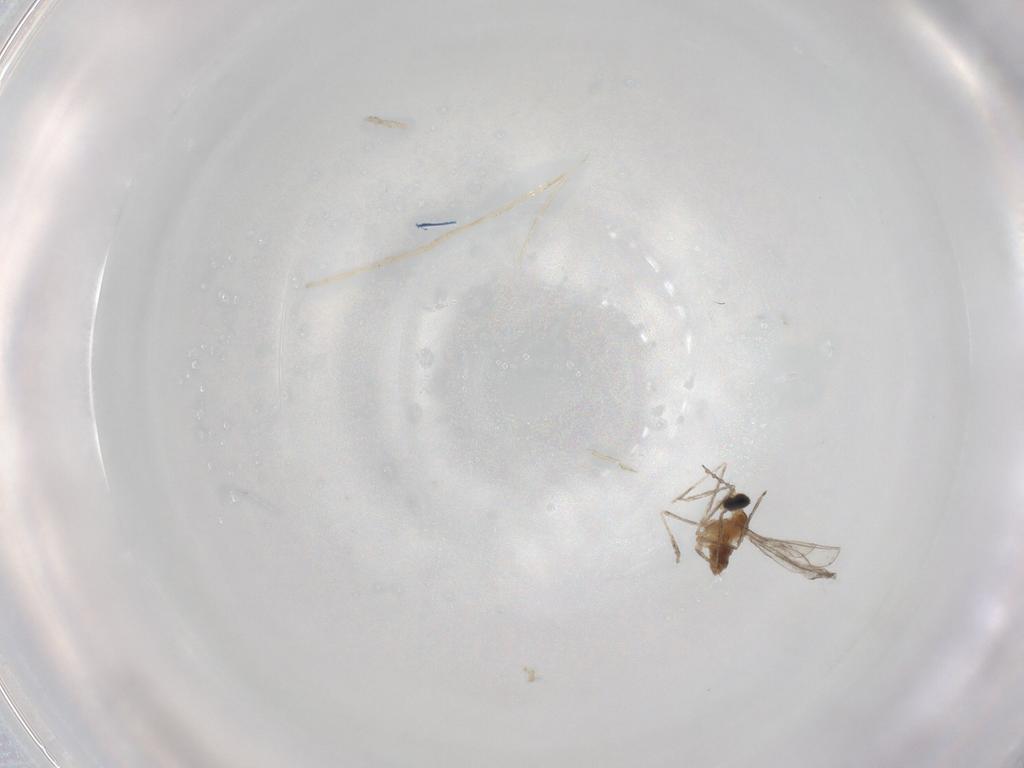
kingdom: Animalia
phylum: Arthropoda
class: Insecta
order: Diptera
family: Cecidomyiidae
